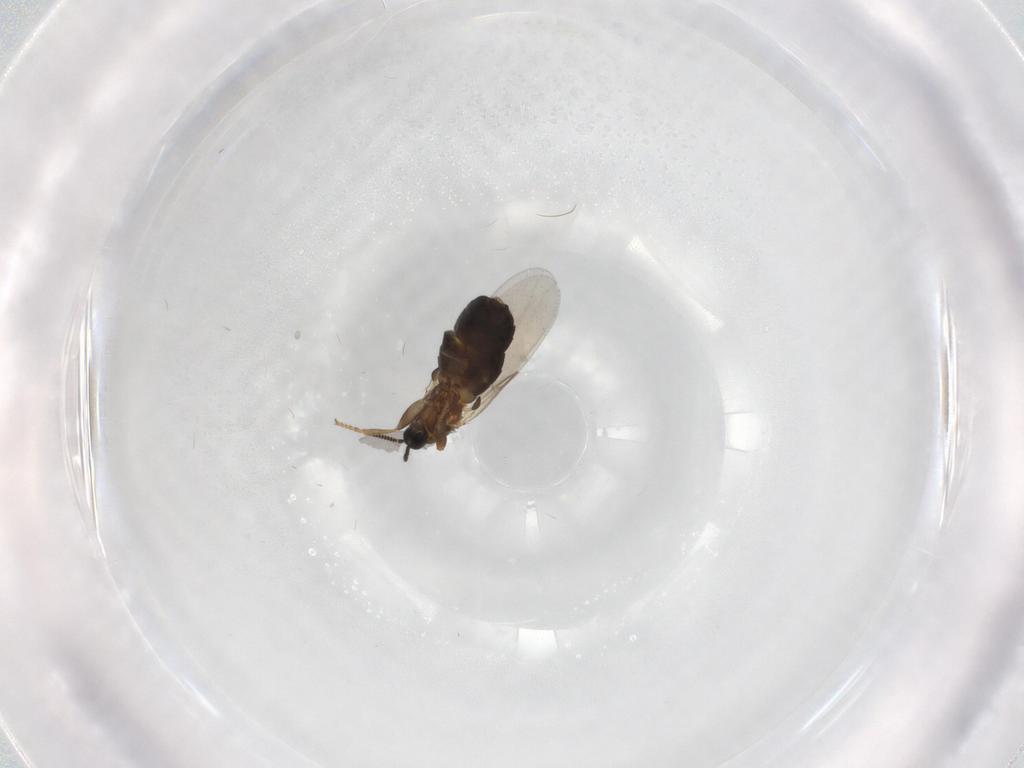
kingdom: Animalia
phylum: Arthropoda
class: Insecta
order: Diptera
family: Scatopsidae
